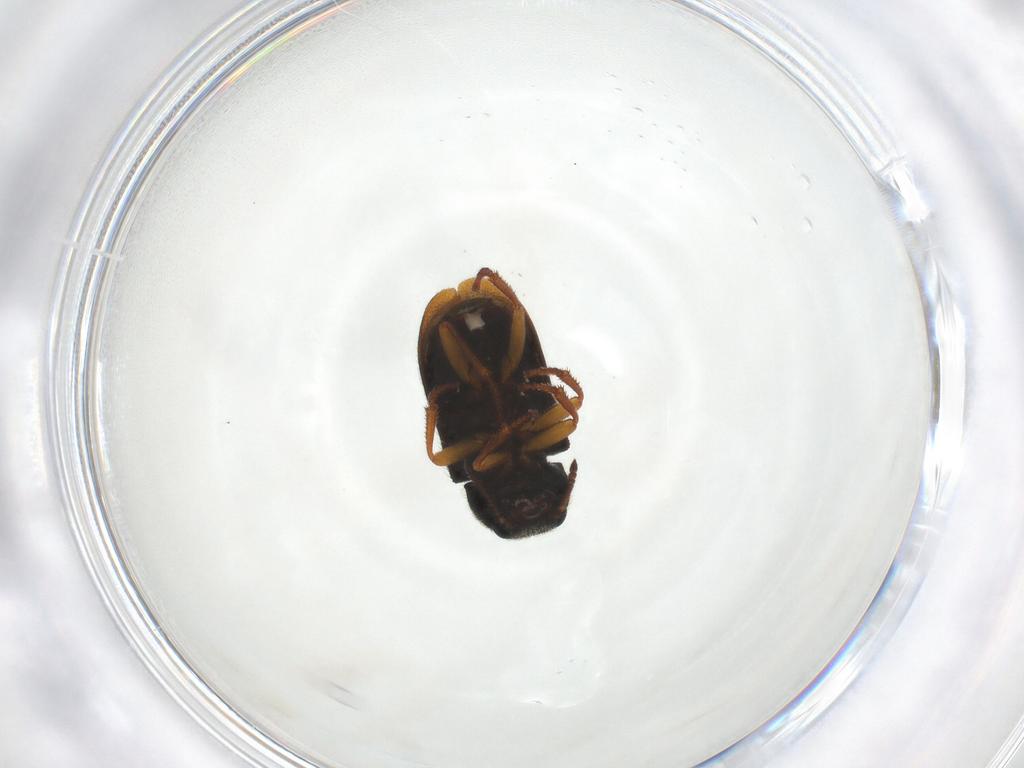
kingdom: Animalia
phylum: Arthropoda
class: Insecta
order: Coleoptera
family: Melyridae
